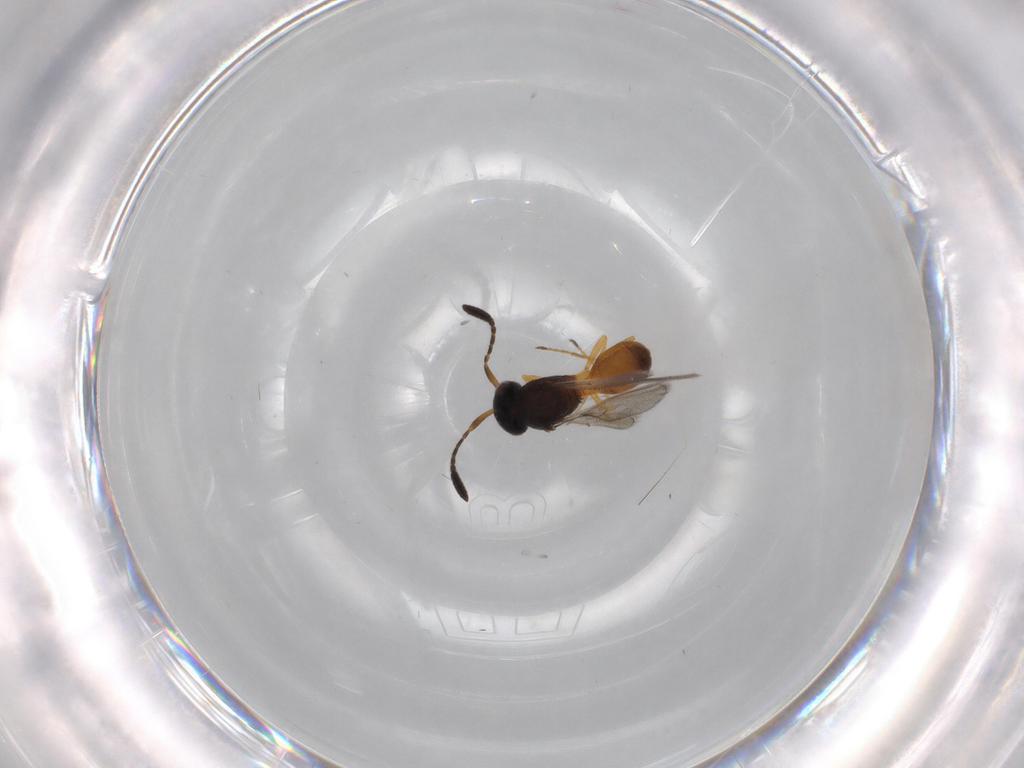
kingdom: Animalia
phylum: Arthropoda
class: Insecta
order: Hymenoptera
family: Scelionidae
